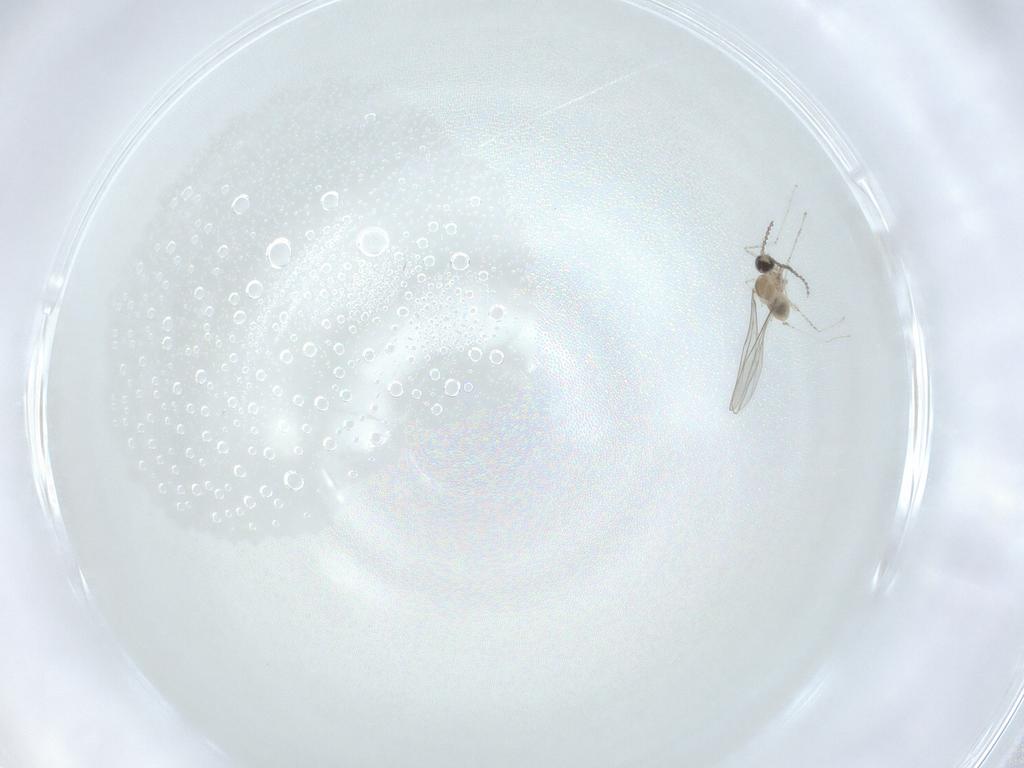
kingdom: Animalia
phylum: Arthropoda
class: Insecta
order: Diptera
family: Cecidomyiidae
